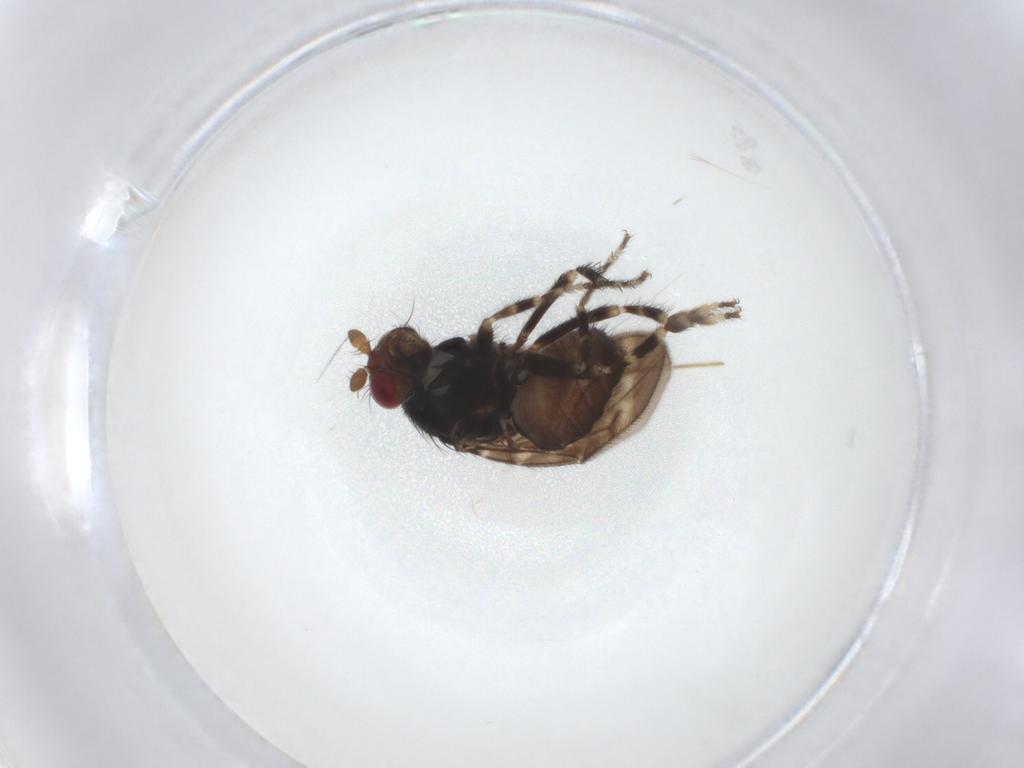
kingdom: Animalia
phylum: Arthropoda
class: Insecta
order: Diptera
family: Sphaeroceridae
